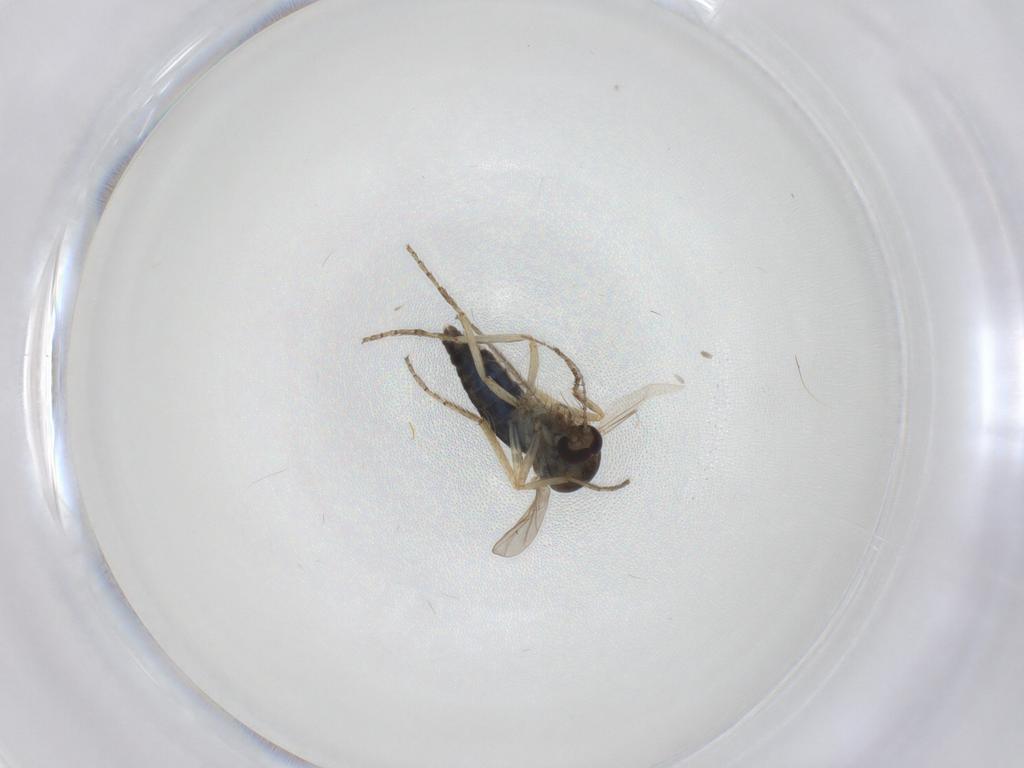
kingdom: Animalia
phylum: Arthropoda
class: Insecta
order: Diptera
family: Ceratopogonidae
